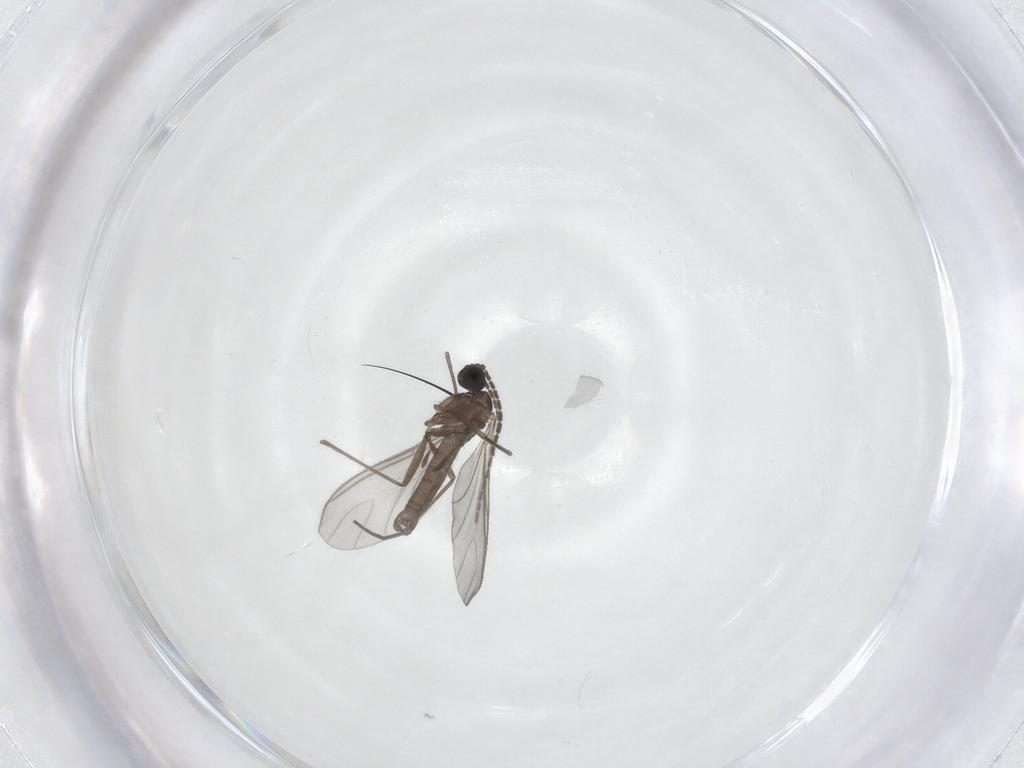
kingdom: Animalia
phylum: Arthropoda
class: Insecta
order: Diptera
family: Sciaridae
